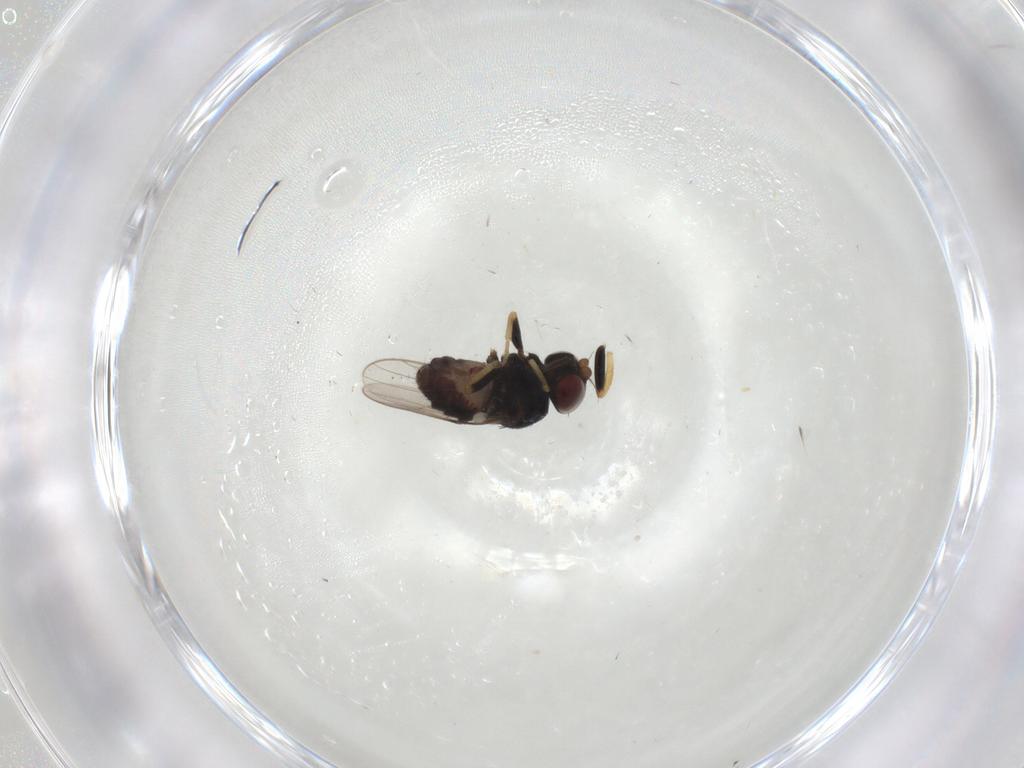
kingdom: Animalia
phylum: Arthropoda
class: Insecta
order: Diptera
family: Chloropidae
